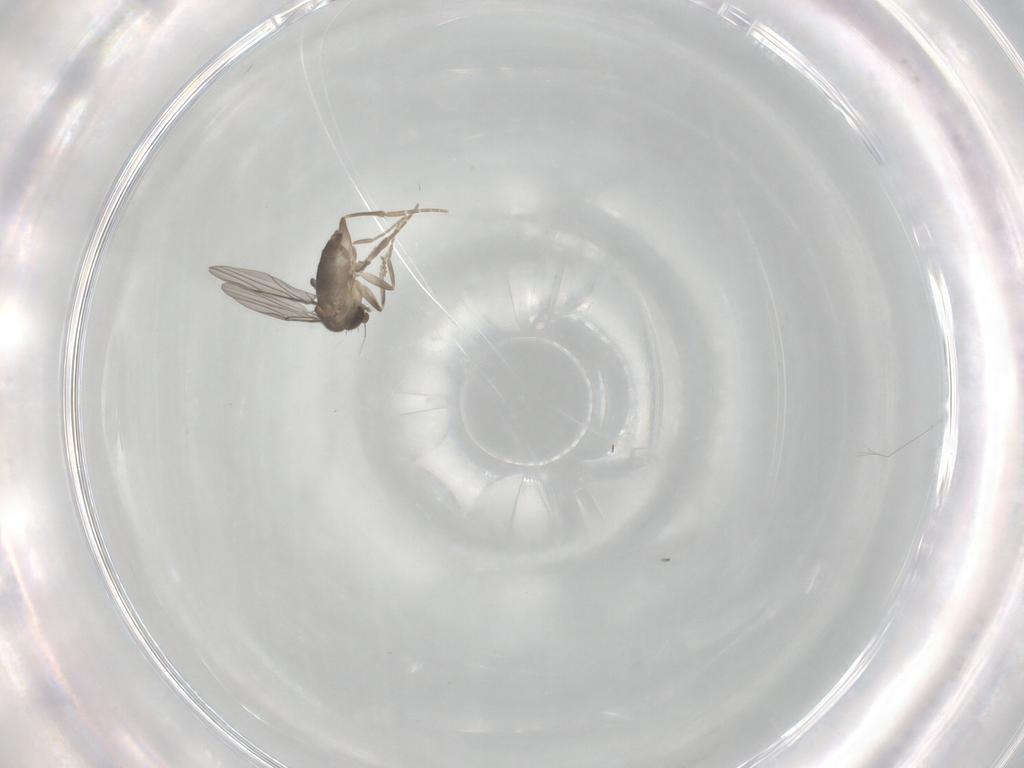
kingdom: Animalia
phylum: Arthropoda
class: Insecta
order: Diptera
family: Phoridae
